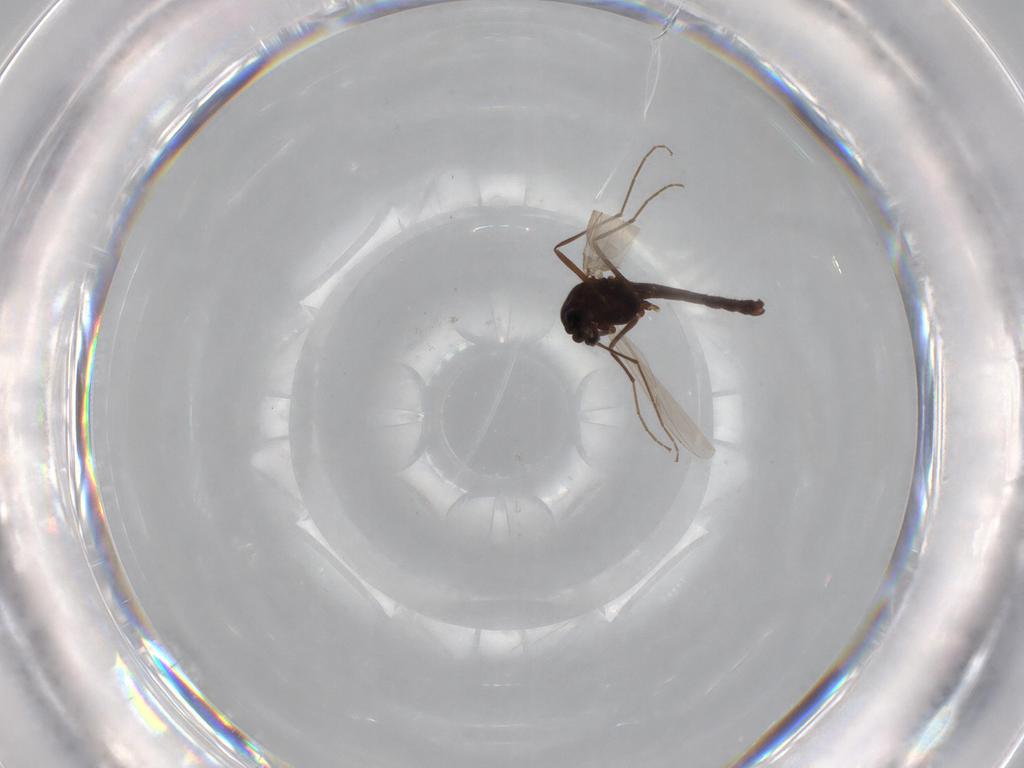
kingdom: Animalia
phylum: Arthropoda
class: Insecta
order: Diptera
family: Chironomidae
